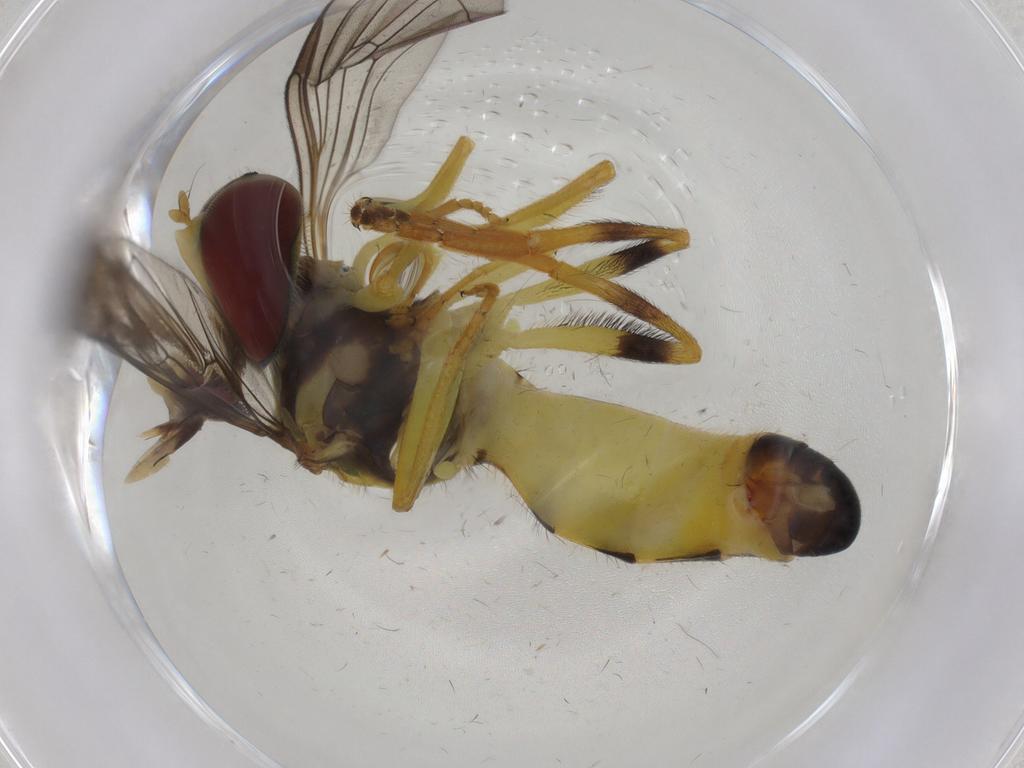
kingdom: Animalia
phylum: Arthropoda
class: Insecta
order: Diptera
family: Syrphidae
